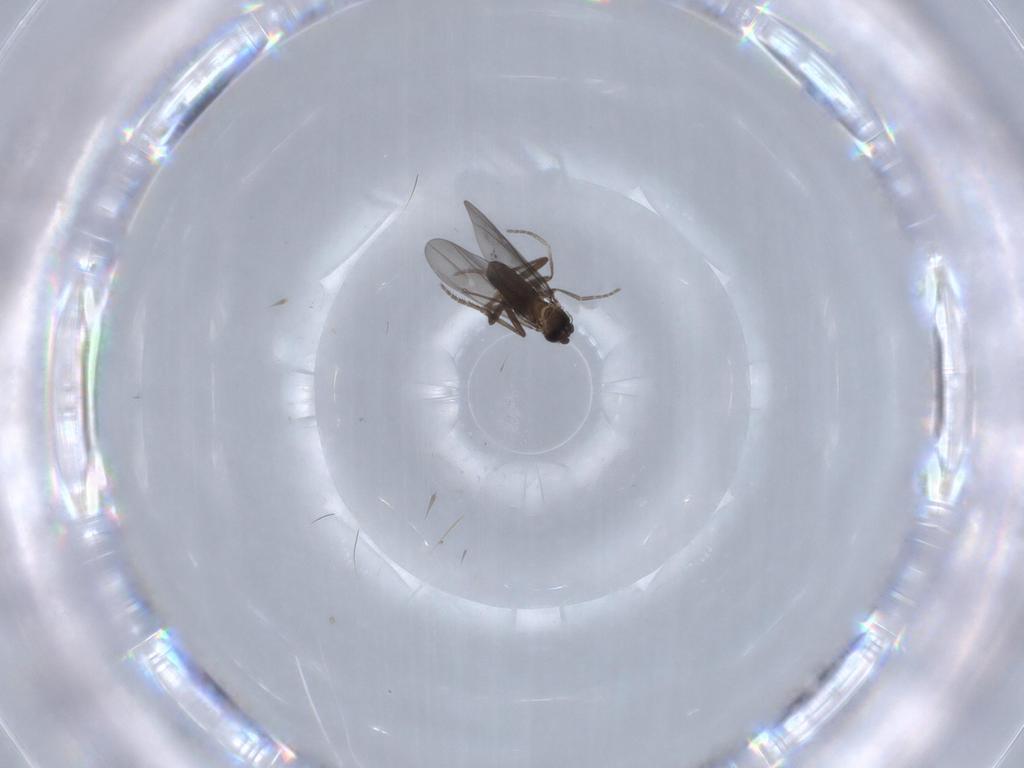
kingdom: Animalia
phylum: Arthropoda
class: Insecta
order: Diptera
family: Phoridae
